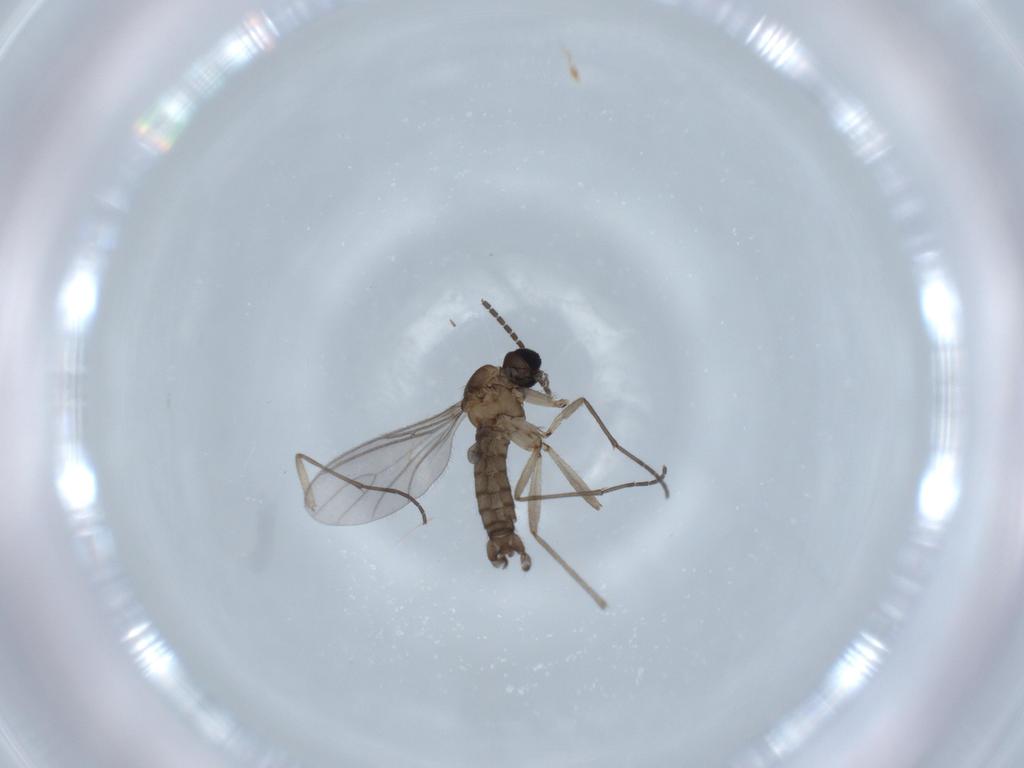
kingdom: Animalia
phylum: Arthropoda
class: Insecta
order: Diptera
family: Sciaridae
